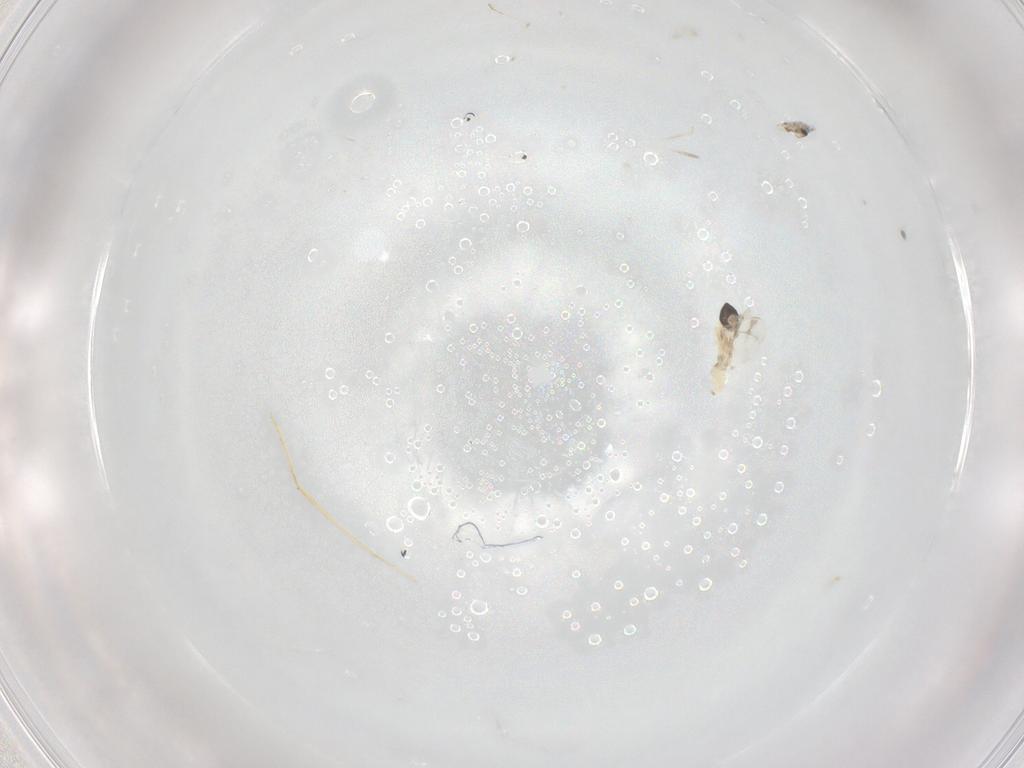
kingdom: Animalia
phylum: Arthropoda
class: Insecta
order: Diptera
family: Cecidomyiidae
